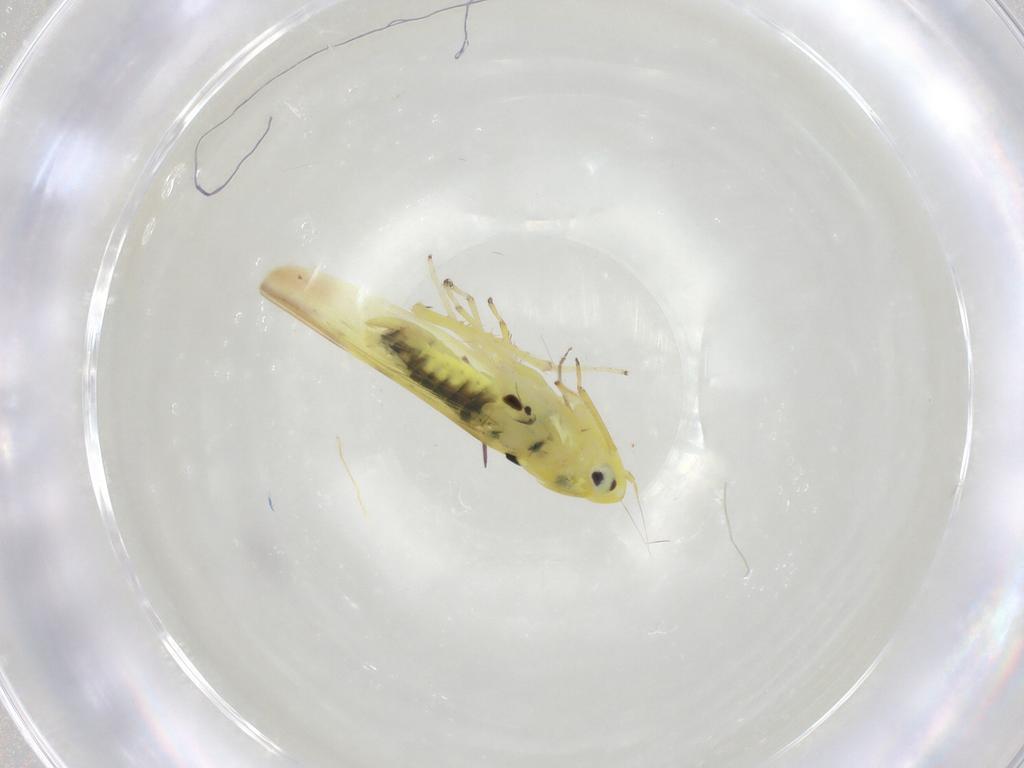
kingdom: Animalia
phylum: Arthropoda
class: Insecta
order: Hemiptera
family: Cicadellidae
